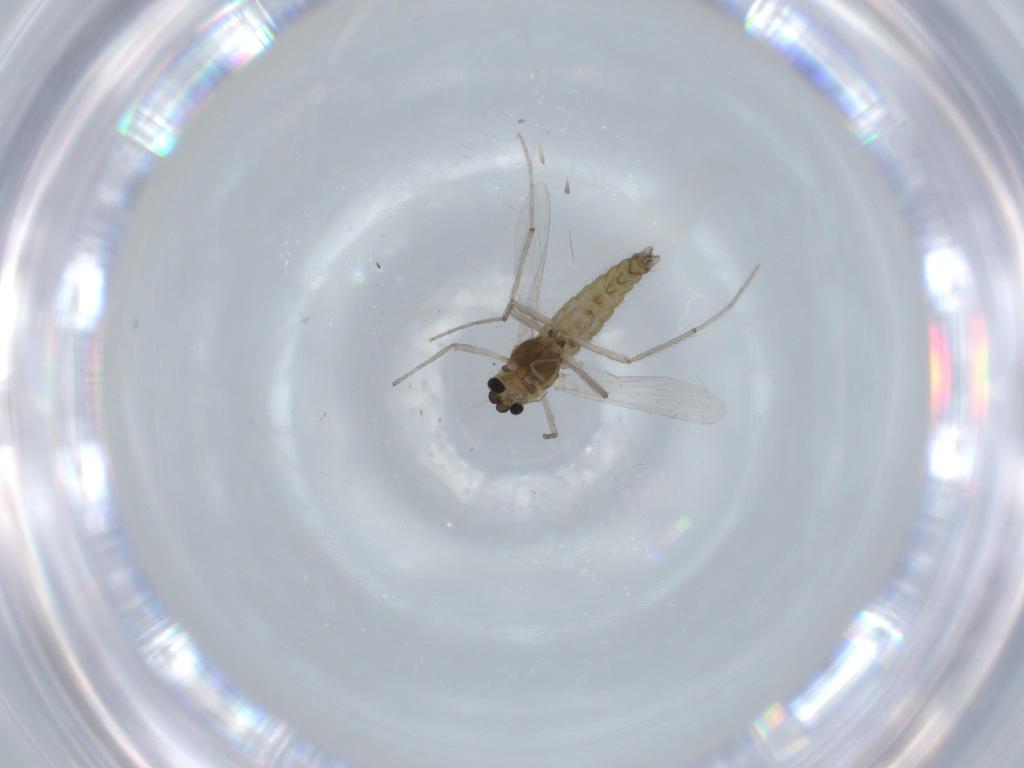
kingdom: Animalia
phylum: Arthropoda
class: Insecta
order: Diptera
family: Chironomidae
